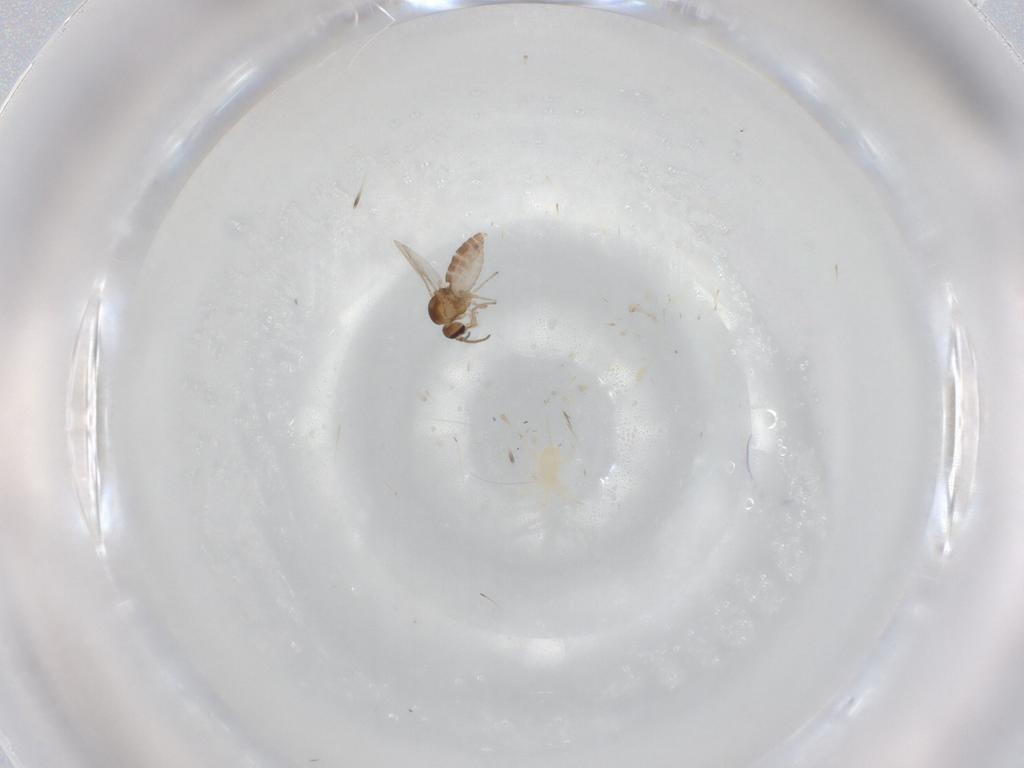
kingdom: Animalia
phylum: Arthropoda
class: Arachnida
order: Mesostigmata
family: Phytoseiidae
